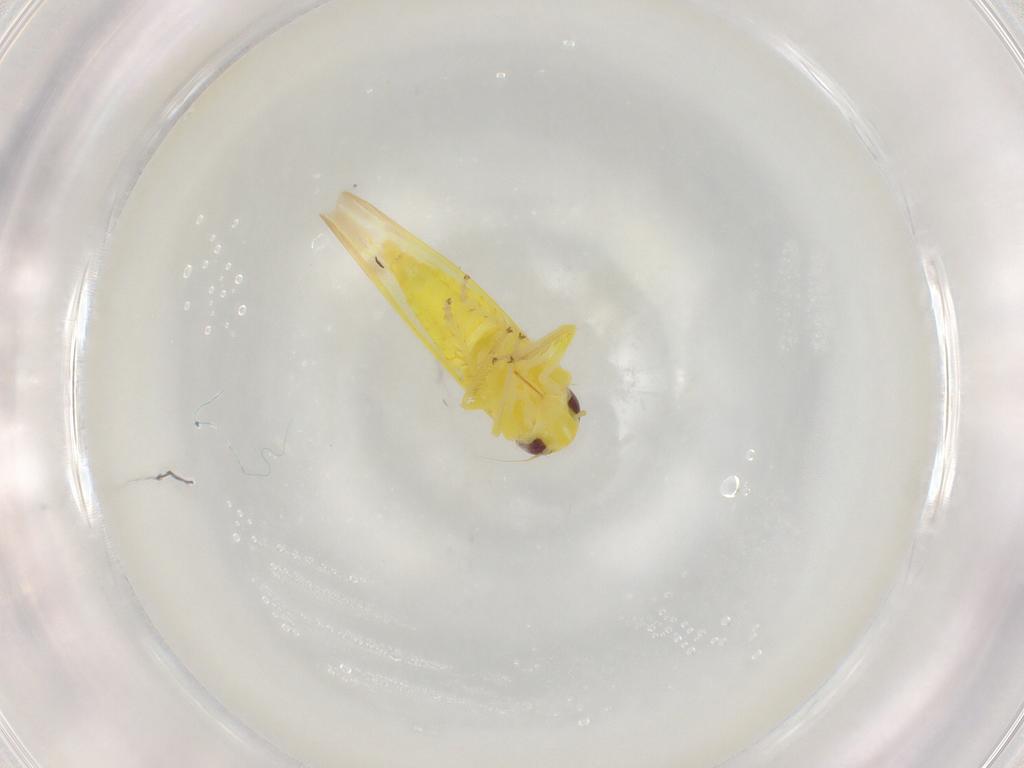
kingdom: Animalia
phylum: Arthropoda
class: Insecta
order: Hemiptera
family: Cicadellidae
